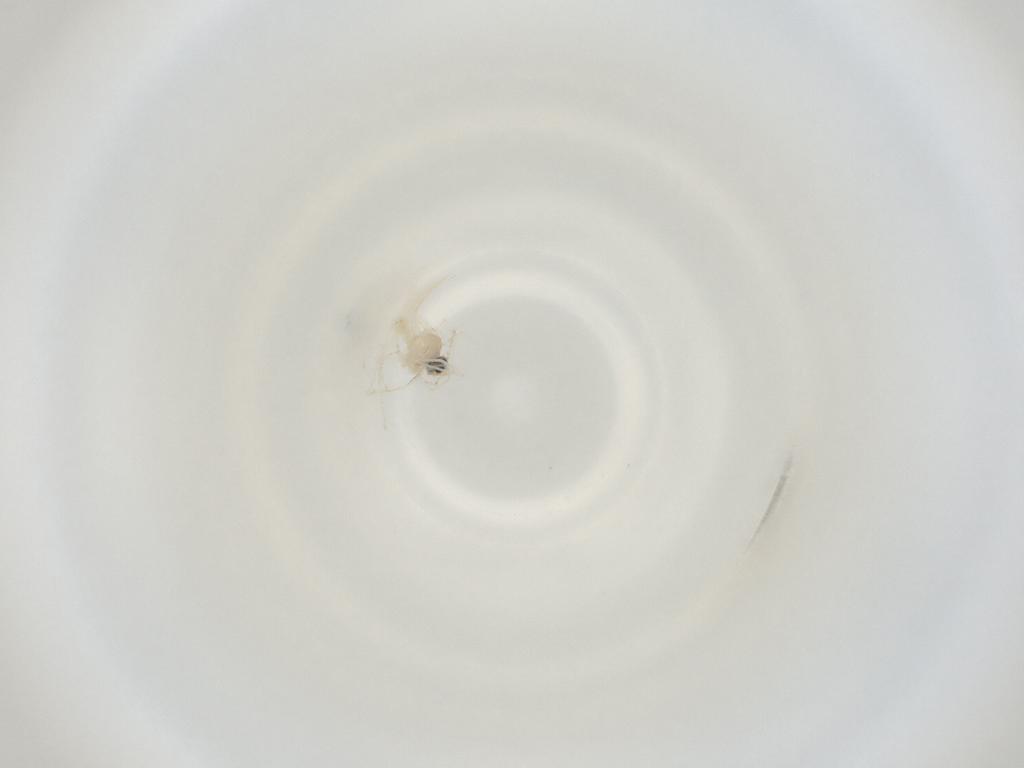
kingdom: Animalia
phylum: Arthropoda
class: Insecta
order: Diptera
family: Cecidomyiidae
